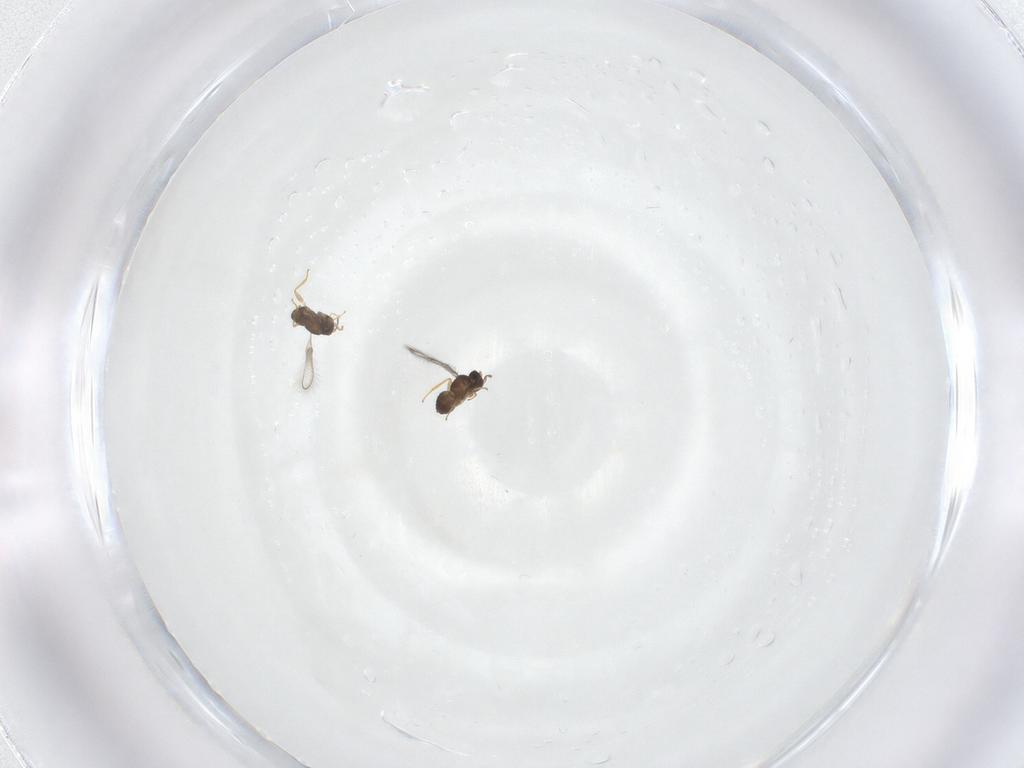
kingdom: Animalia
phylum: Arthropoda
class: Insecta
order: Hymenoptera
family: Mymaridae
